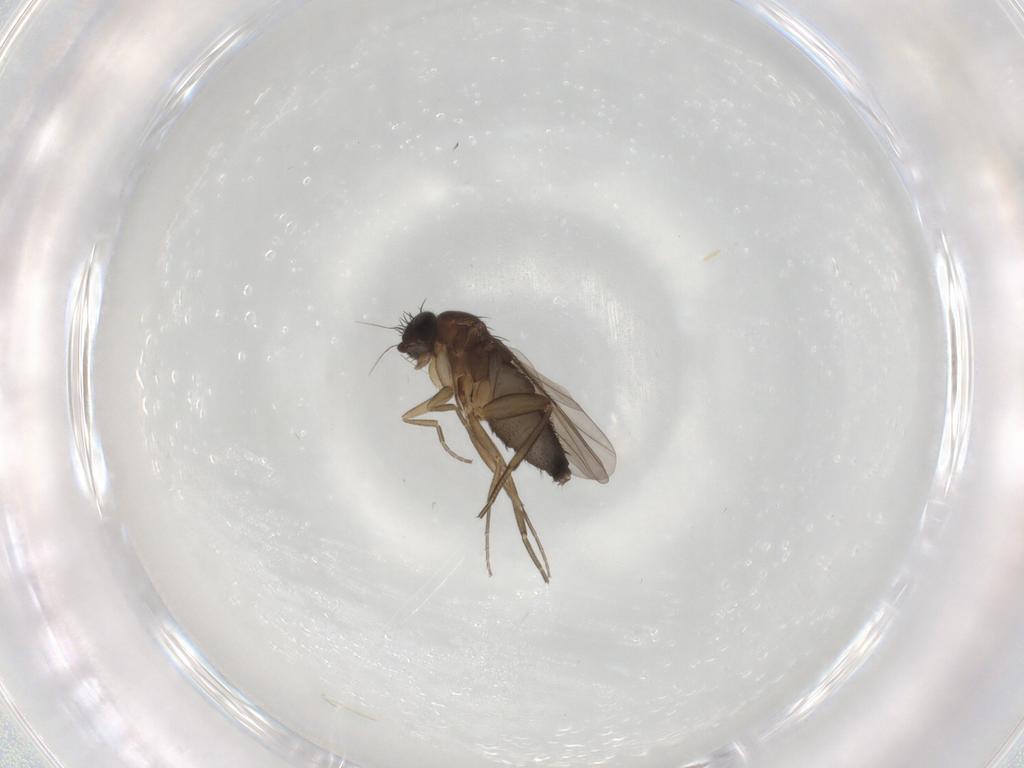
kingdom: Animalia
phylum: Arthropoda
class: Insecta
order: Diptera
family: Phoridae
